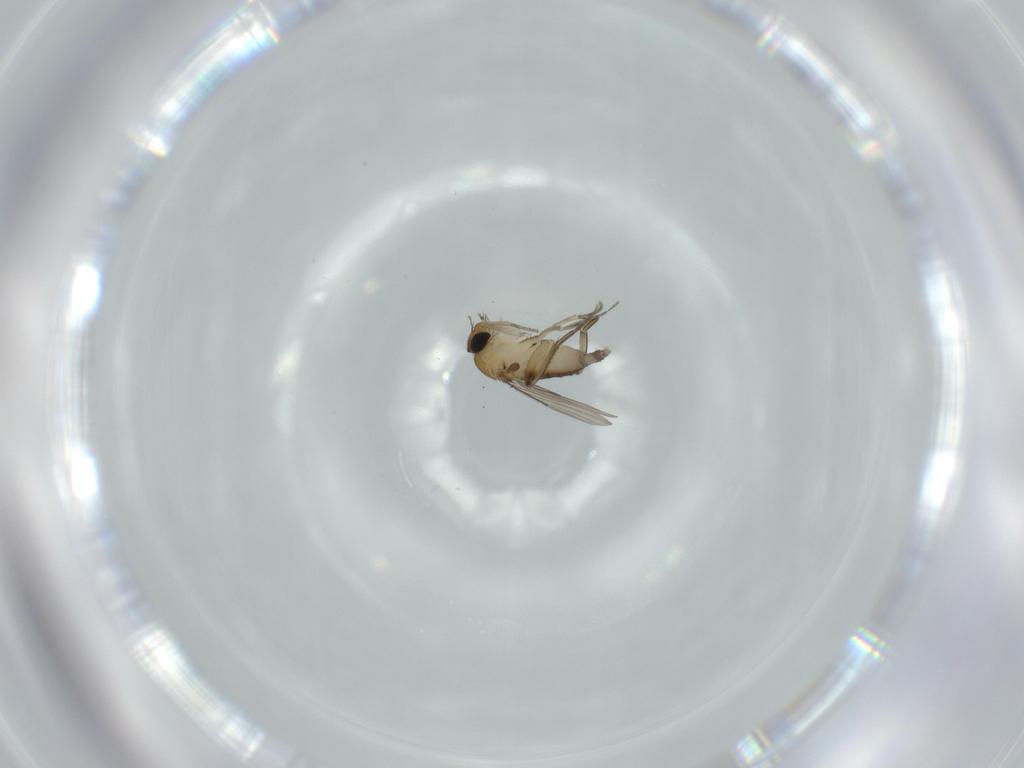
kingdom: Animalia
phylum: Arthropoda
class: Insecta
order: Diptera
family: Phoridae
